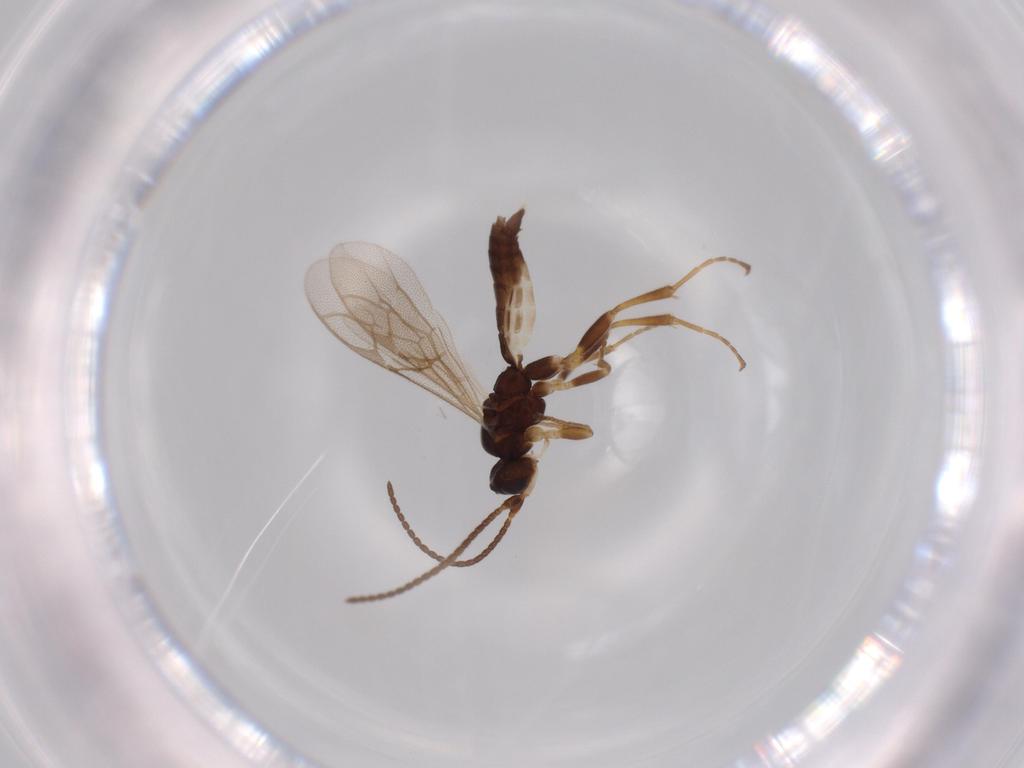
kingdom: Animalia
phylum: Arthropoda
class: Insecta
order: Hymenoptera
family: Ichneumonidae
